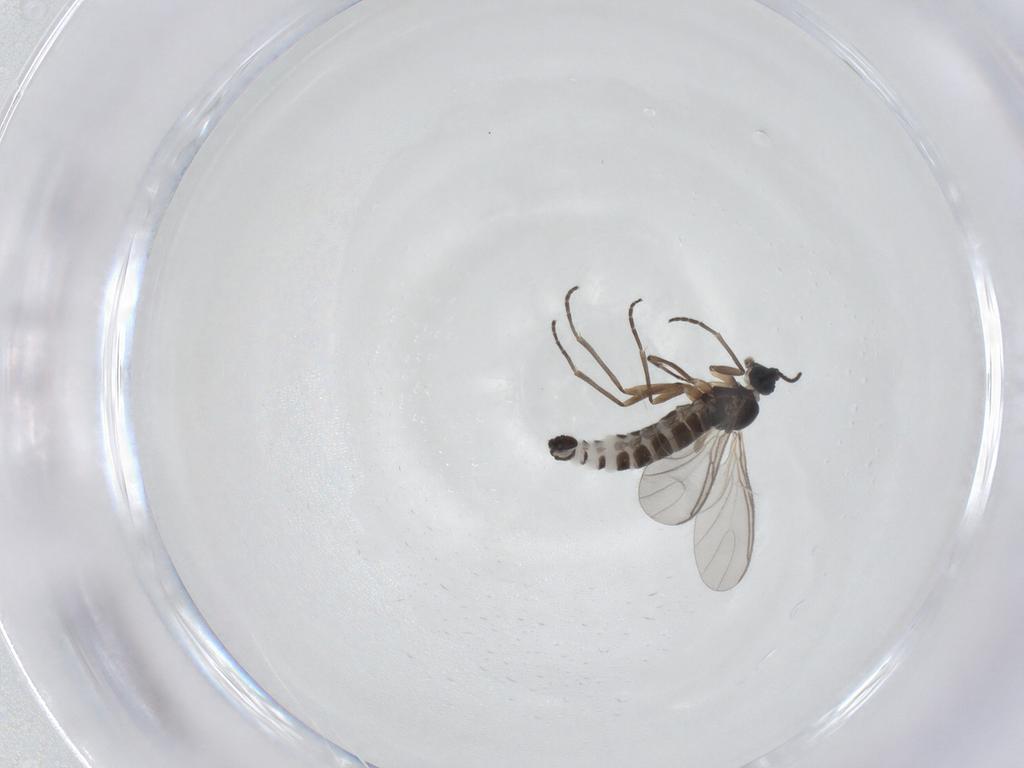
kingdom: Animalia
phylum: Arthropoda
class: Insecta
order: Diptera
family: Sciaridae
